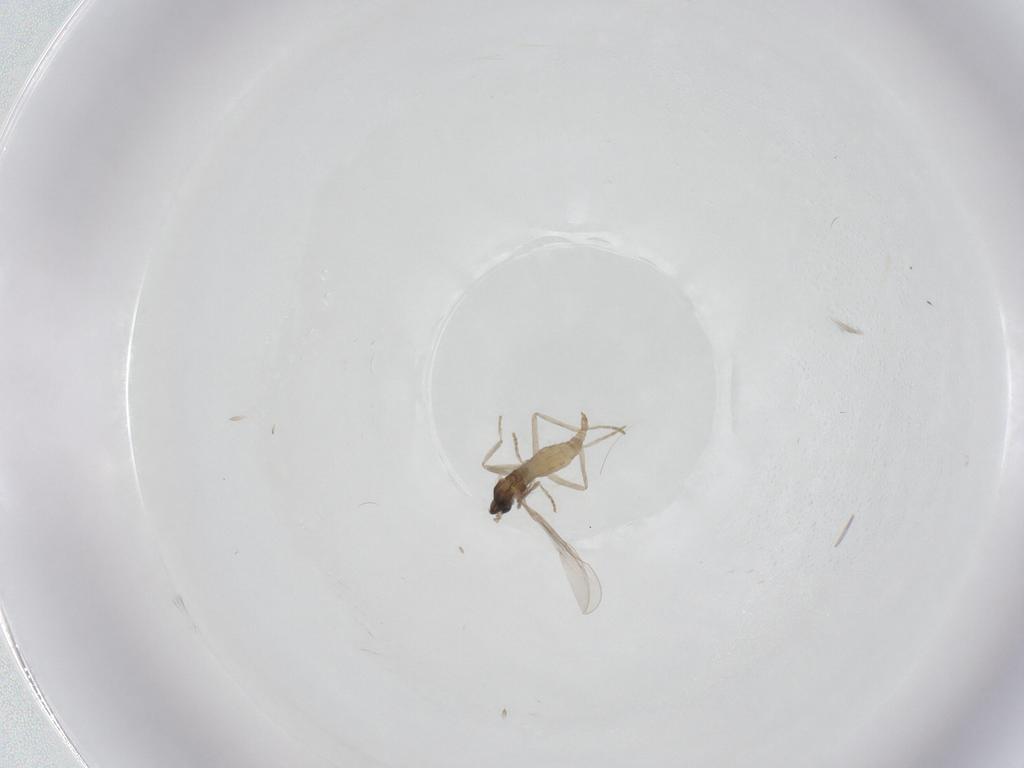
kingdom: Animalia
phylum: Arthropoda
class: Insecta
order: Diptera
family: Cecidomyiidae
